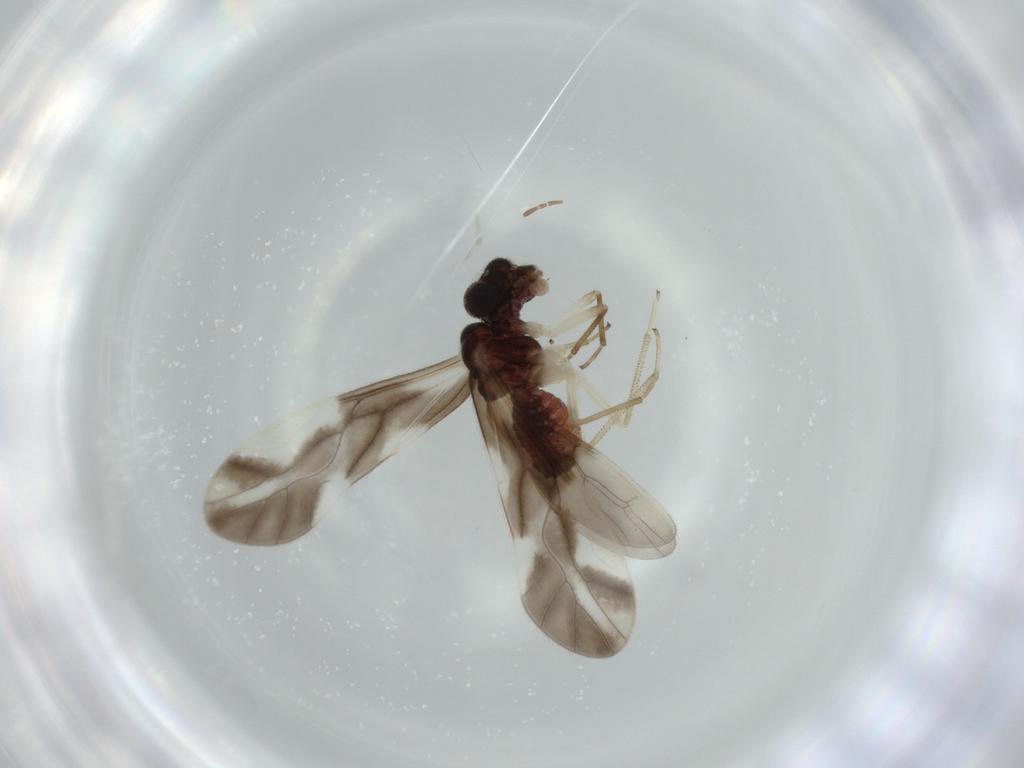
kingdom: Animalia
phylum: Arthropoda
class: Insecta
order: Psocodea
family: Caeciliusidae
